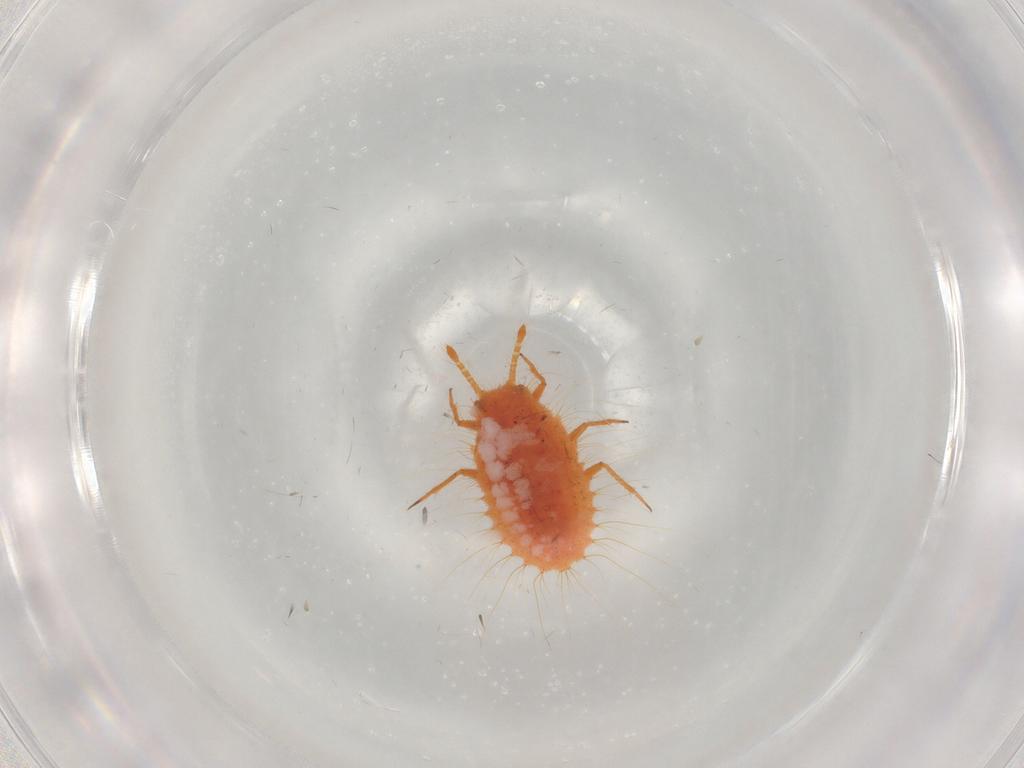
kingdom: Animalia
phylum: Arthropoda
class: Insecta
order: Hemiptera
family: Coccoidea_incertae_sedis
